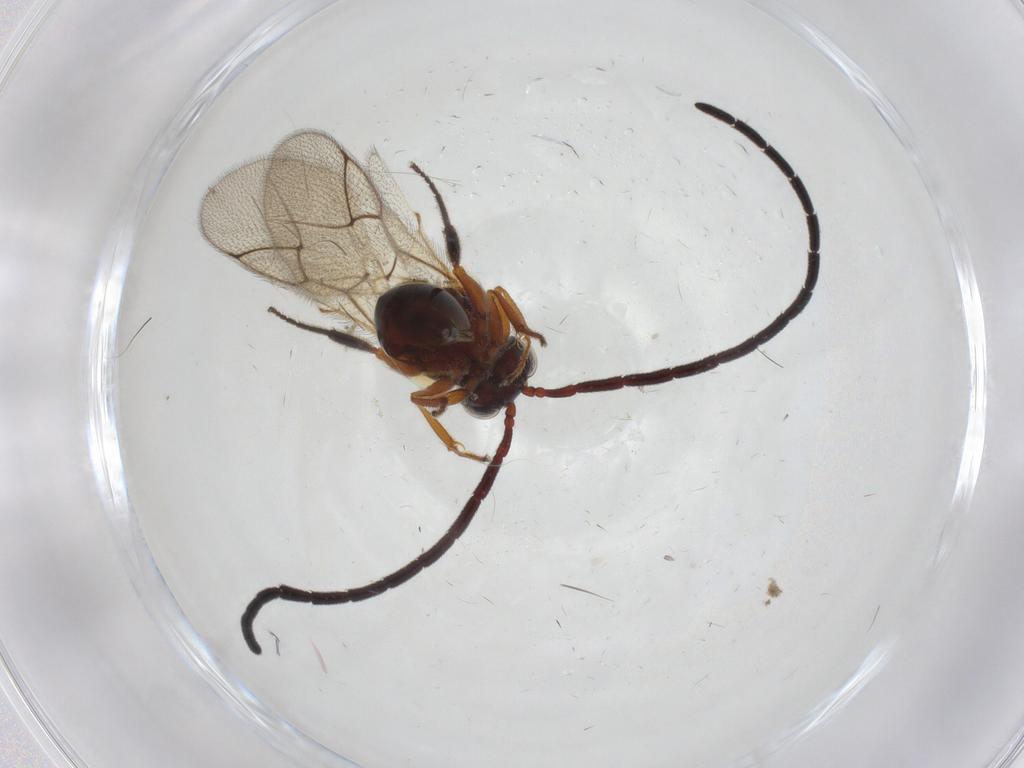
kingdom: Animalia
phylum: Arthropoda
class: Insecta
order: Hymenoptera
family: Figitidae
